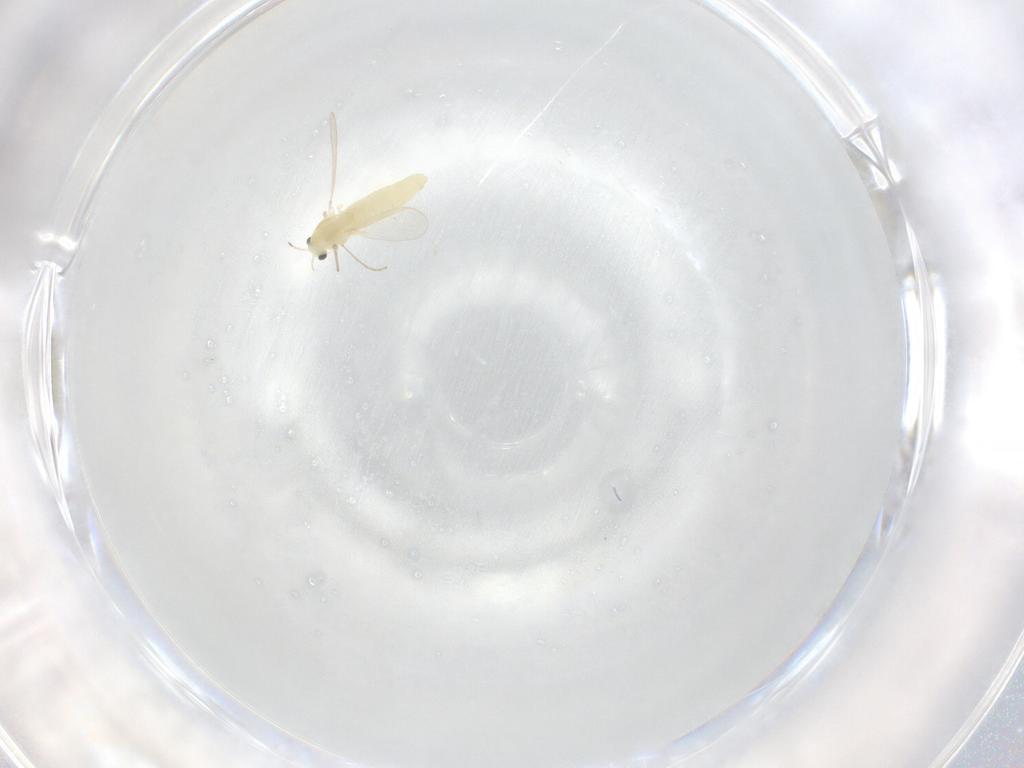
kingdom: Animalia
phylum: Arthropoda
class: Insecta
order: Diptera
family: Chironomidae
